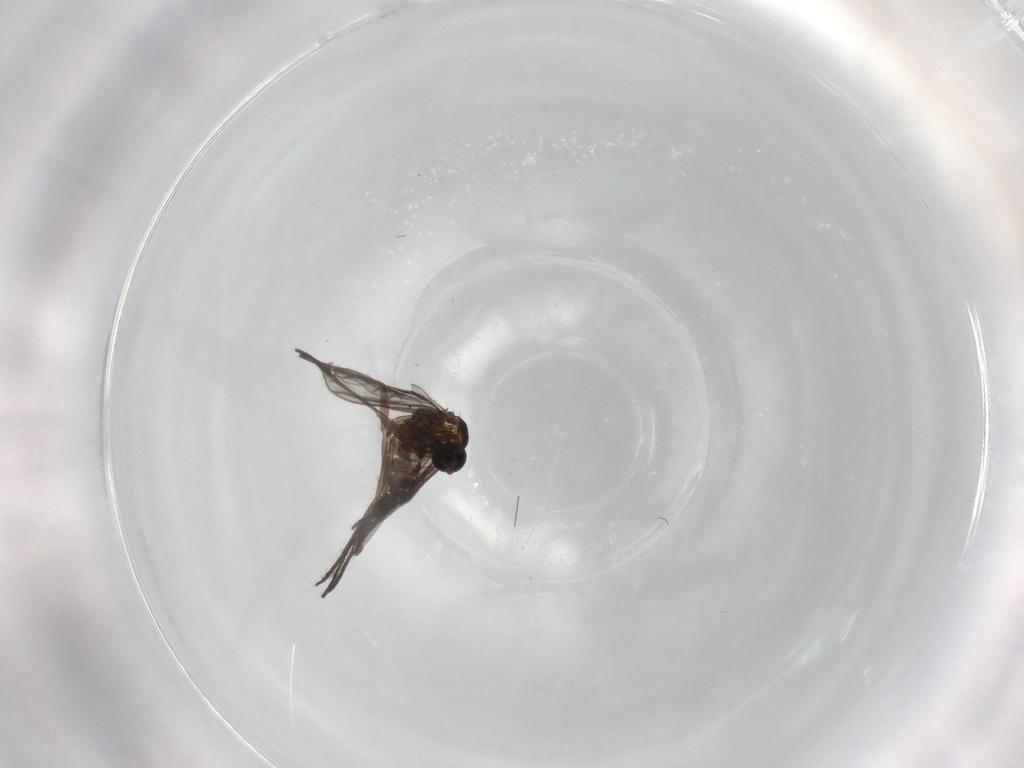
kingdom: Animalia
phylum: Arthropoda
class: Insecta
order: Diptera
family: Sciaridae
